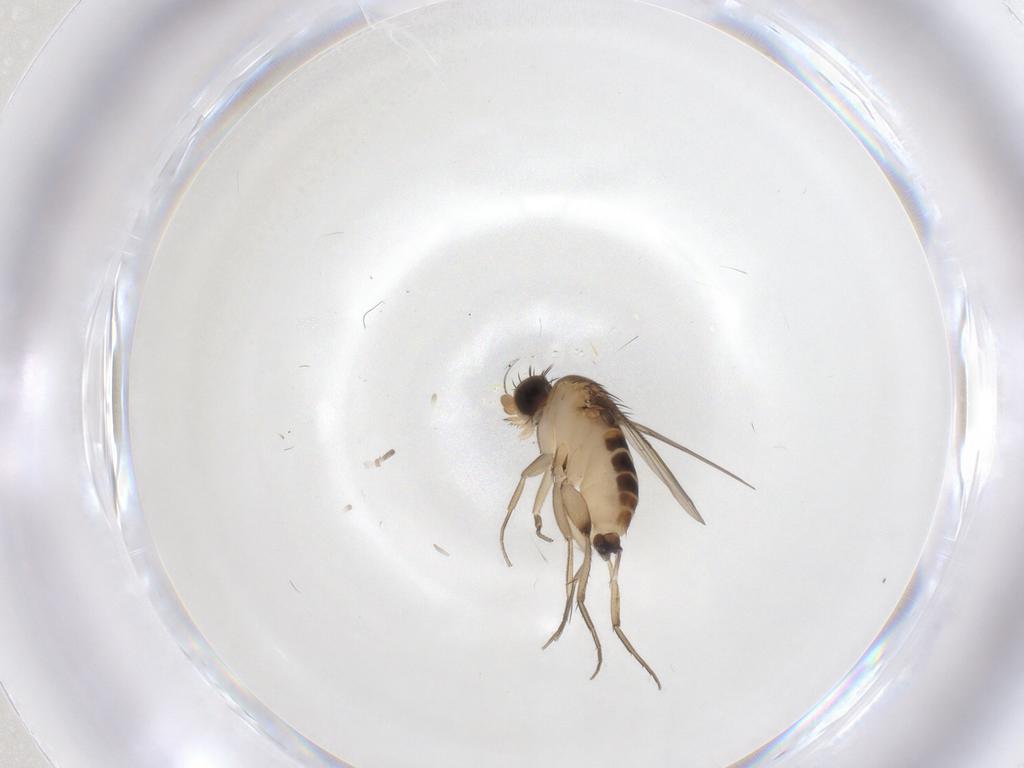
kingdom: Animalia
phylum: Arthropoda
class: Insecta
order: Diptera
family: Phoridae
